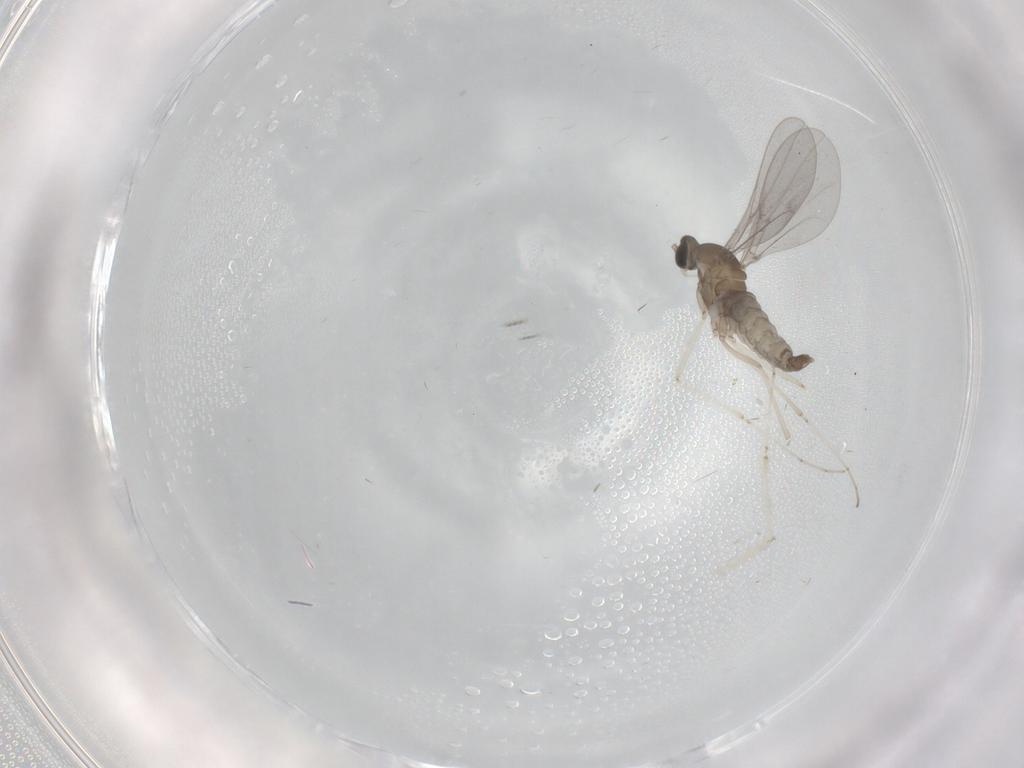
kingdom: Animalia
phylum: Arthropoda
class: Insecta
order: Diptera
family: Cecidomyiidae
